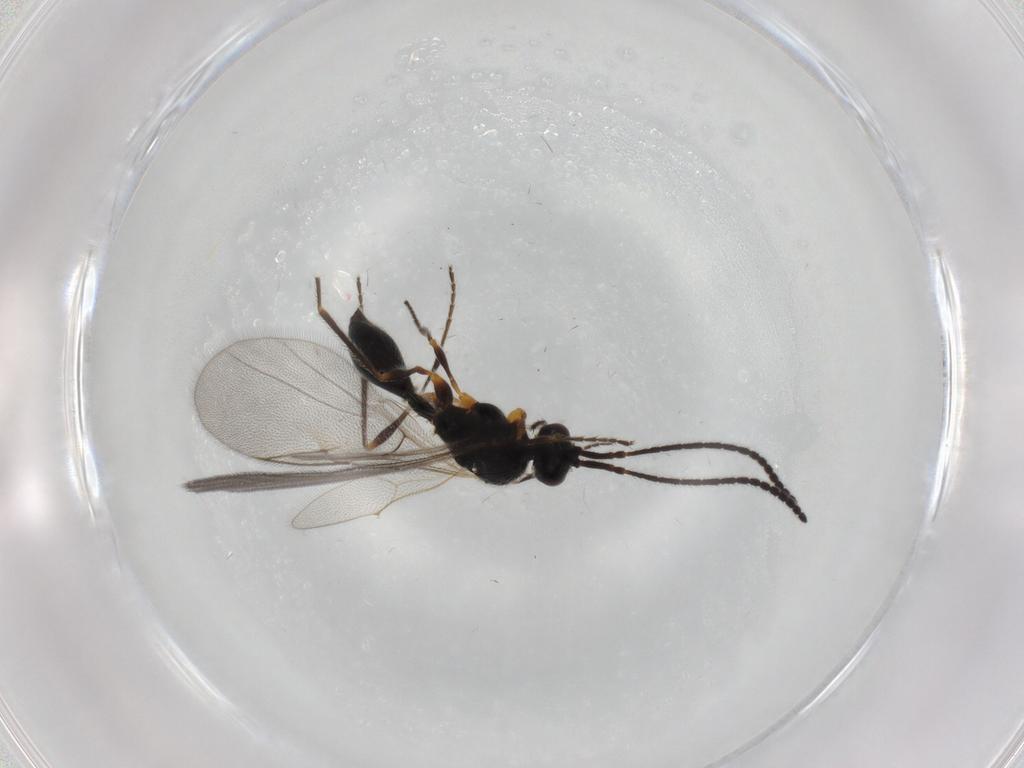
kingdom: Animalia
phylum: Arthropoda
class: Insecta
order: Hymenoptera
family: Diapriidae
